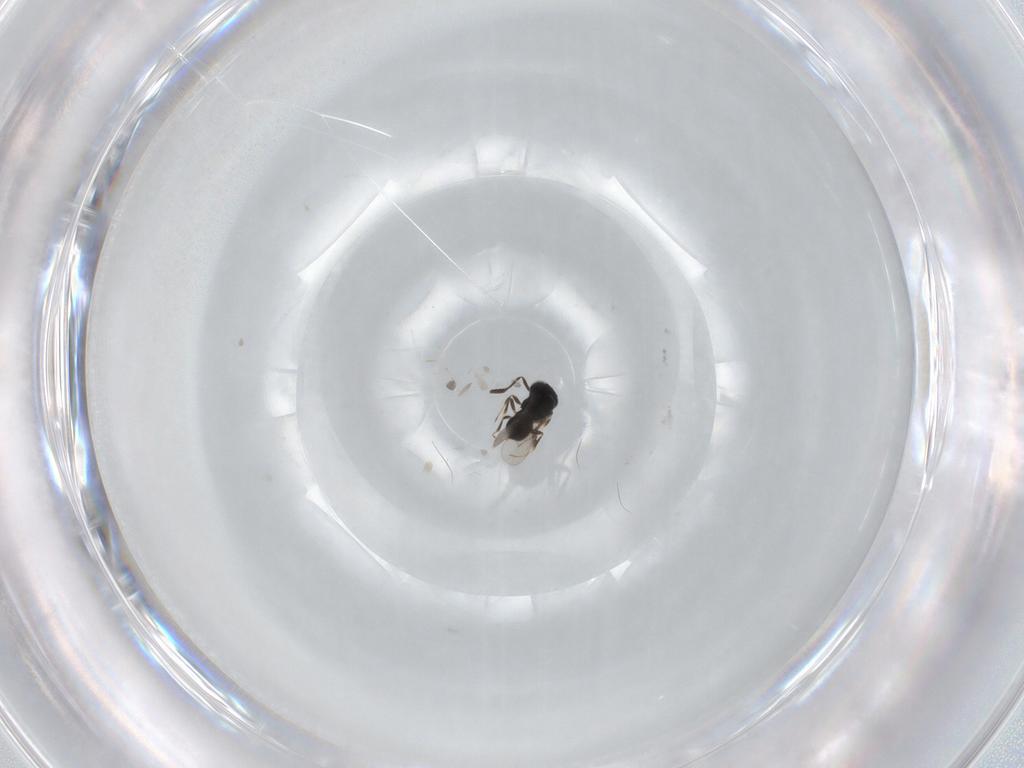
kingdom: Animalia
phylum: Arthropoda
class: Insecta
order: Hymenoptera
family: Scelionidae
